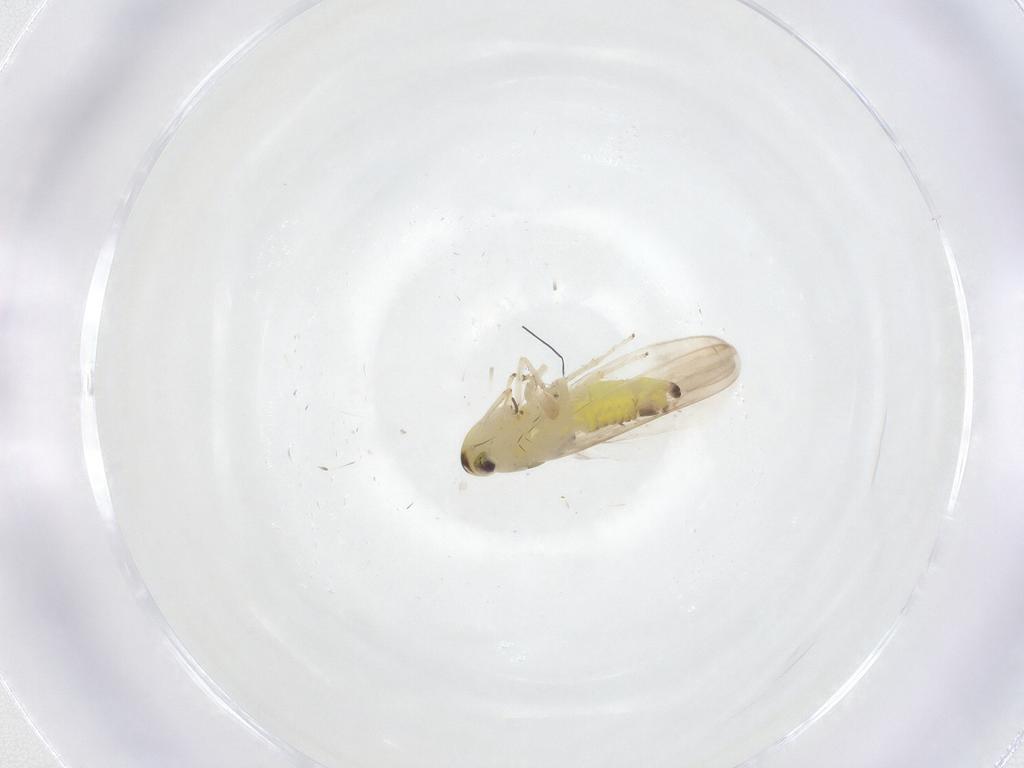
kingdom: Animalia
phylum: Arthropoda
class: Insecta
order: Hemiptera
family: Cicadellidae
